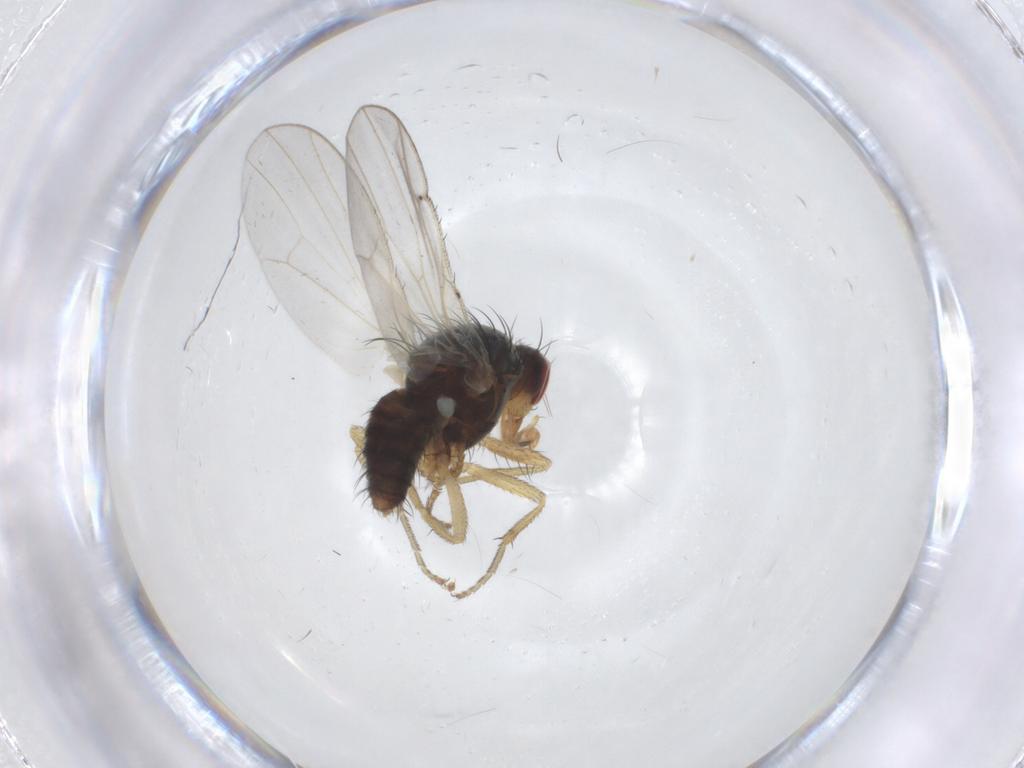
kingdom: Animalia
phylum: Arthropoda
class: Insecta
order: Diptera
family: Heleomyzidae
